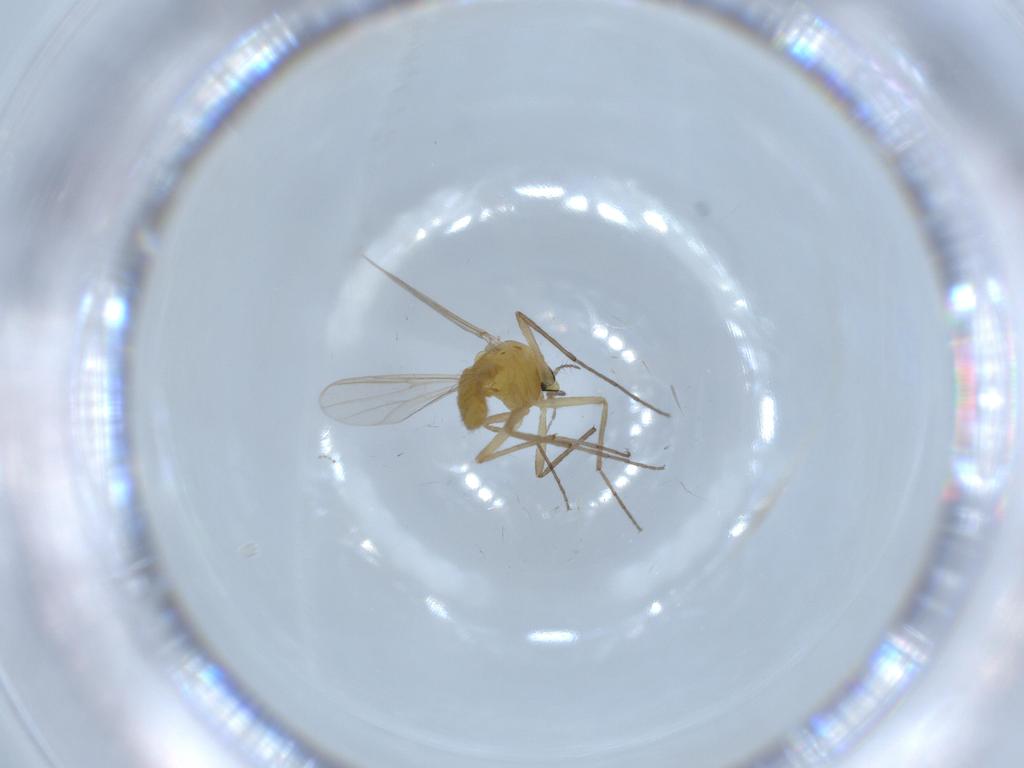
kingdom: Animalia
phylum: Arthropoda
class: Insecta
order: Diptera
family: Chironomidae
